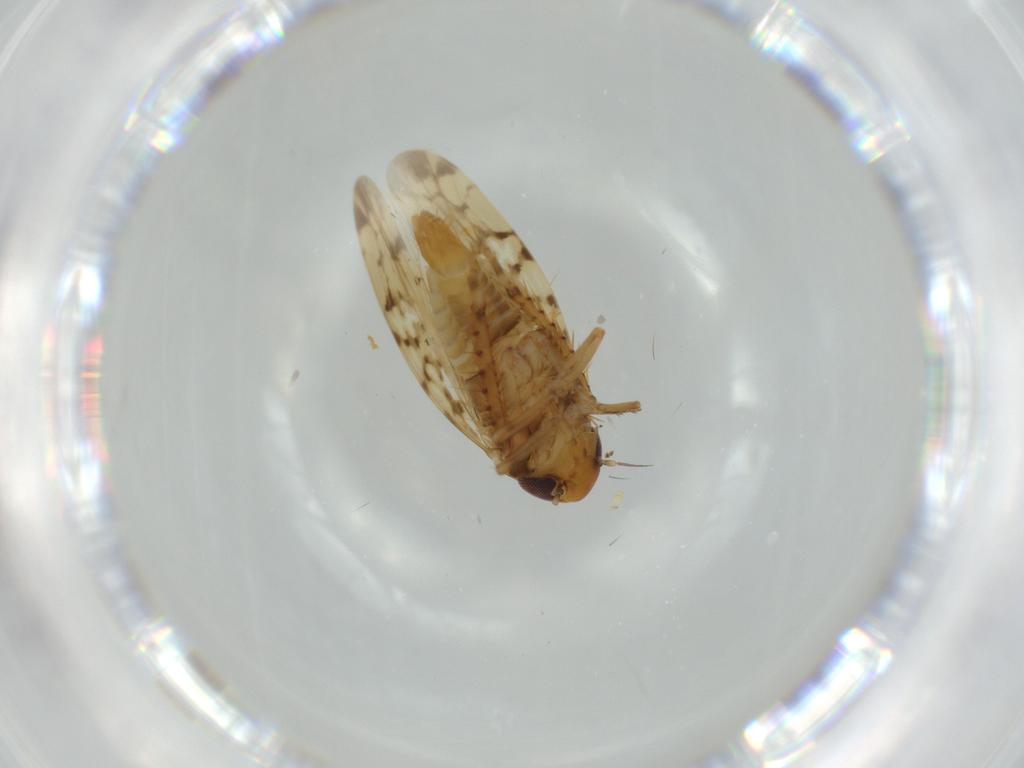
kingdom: Animalia
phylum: Arthropoda
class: Insecta
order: Hemiptera
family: Cicadellidae
